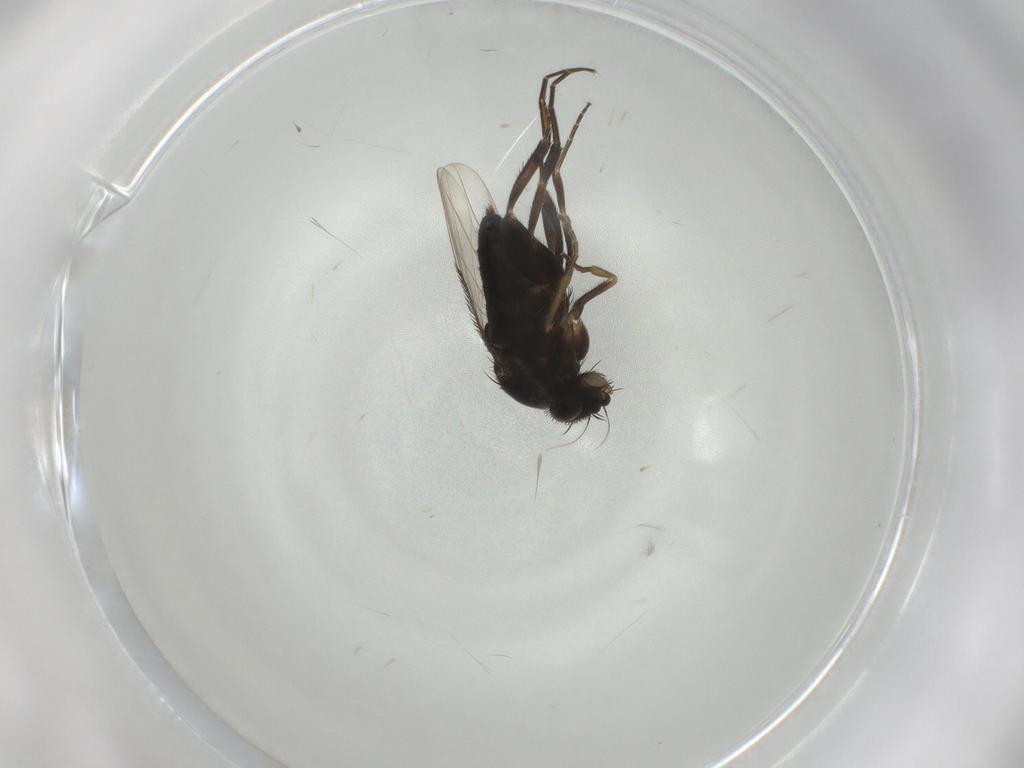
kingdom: Animalia
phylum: Arthropoda
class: Insecta
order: Diptera
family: Phoridae
